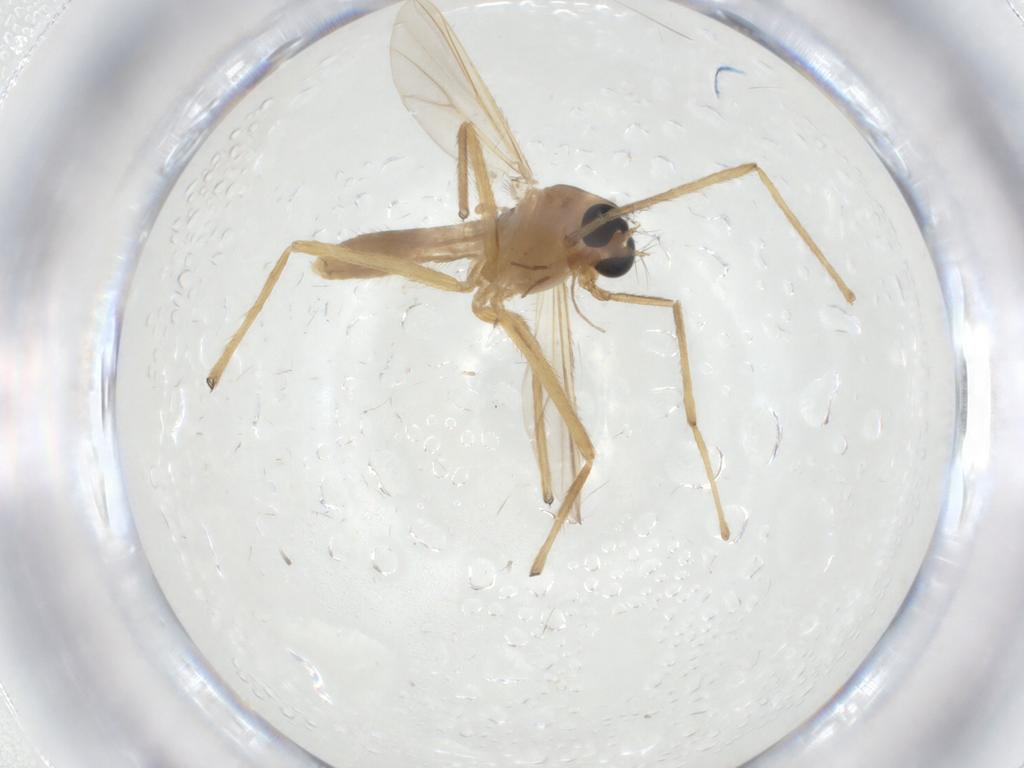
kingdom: Animalia
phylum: Arthropoda
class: Insecta
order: Diptera
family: Chironomidae
